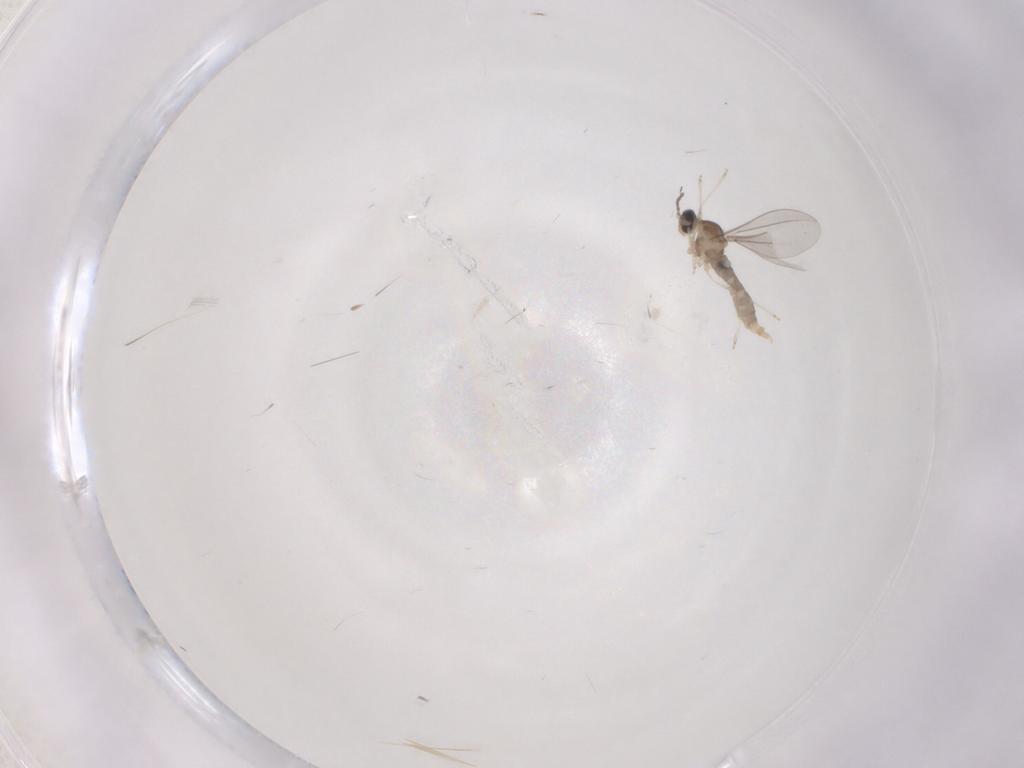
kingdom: Animalia
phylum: Arthropoda
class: Insecta
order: Diptera
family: Cecidomyiidae
